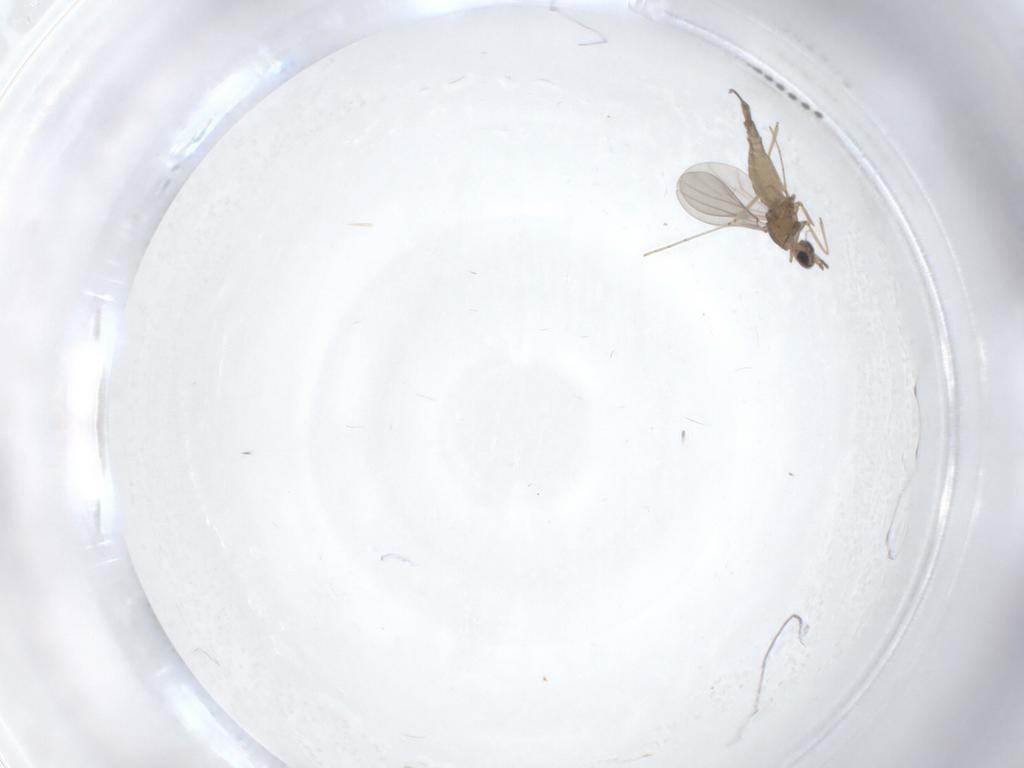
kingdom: Animalia
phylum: Arthropoda
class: Insecta
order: Diptera
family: Cecidomyiidae
